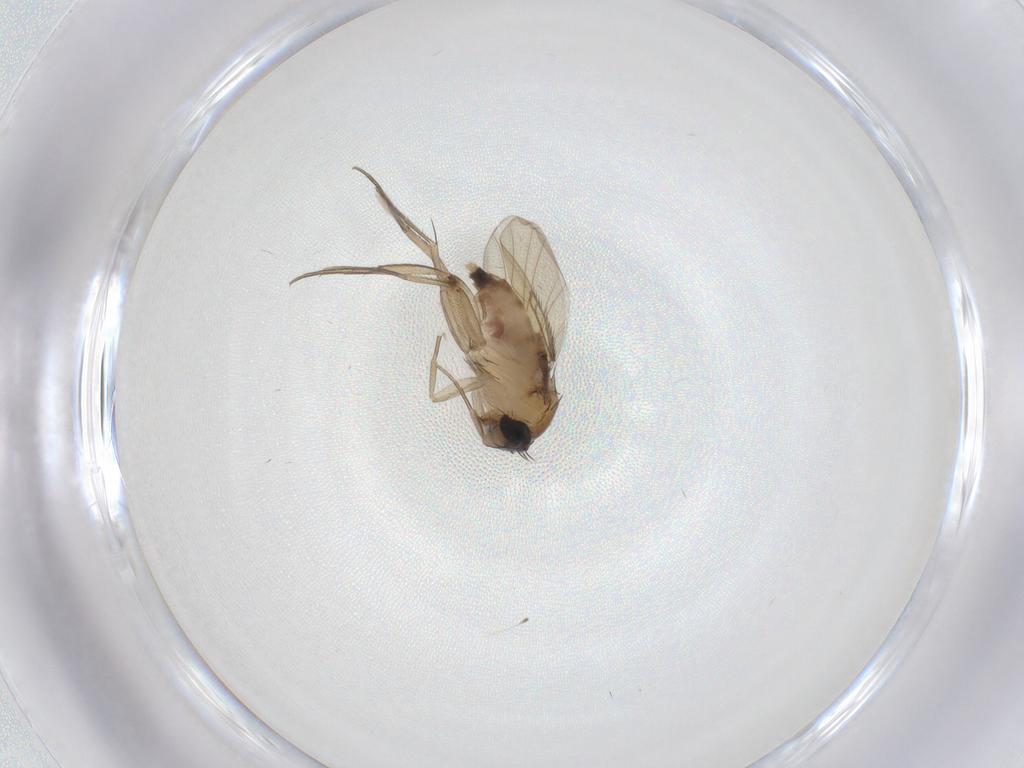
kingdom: Animalia
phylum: Arthropoda
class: Insecta
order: Diptera
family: Phoridae
